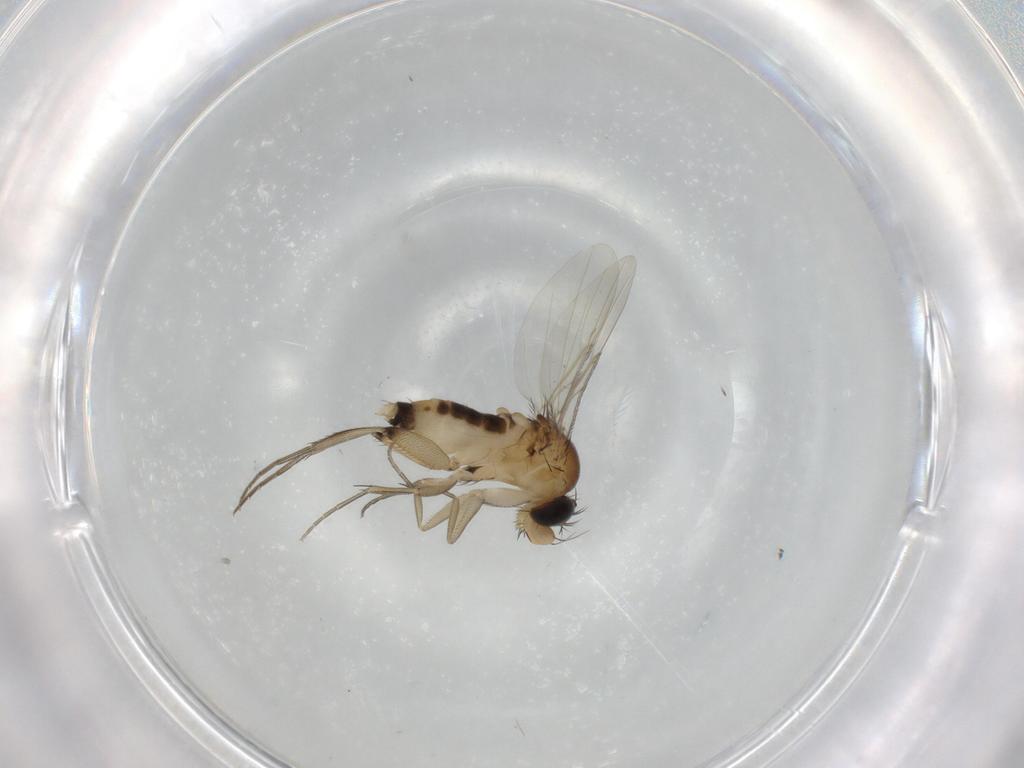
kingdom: Animalia
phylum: Arthropoda
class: Insecta
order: Diptera
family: Phoridae
